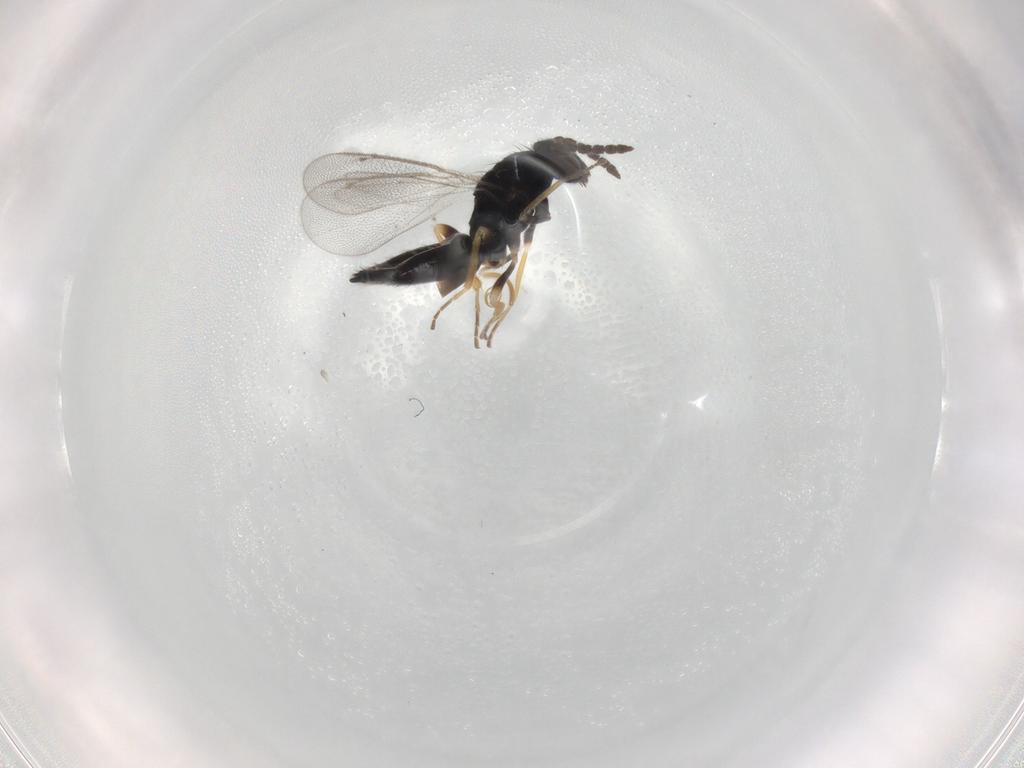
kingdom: Animalia
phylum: Arthropoda
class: Insecta
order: Hymenoptera
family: Eulophidae
